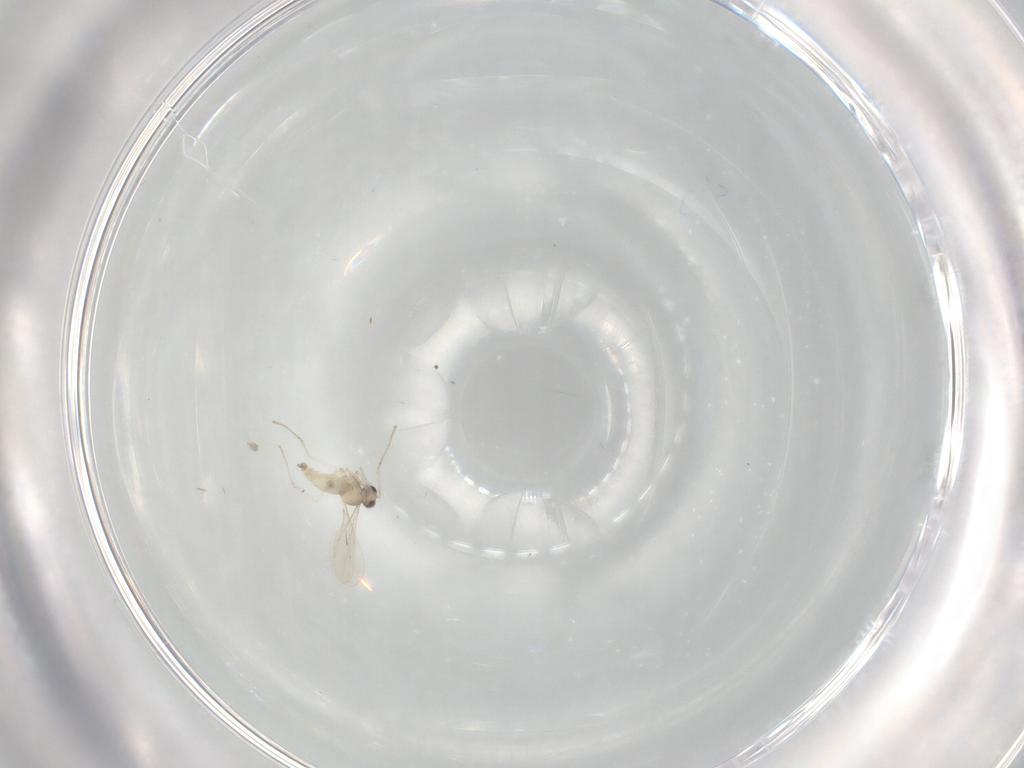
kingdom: Animalia
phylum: Arthropoda
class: Insecta
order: Diptera
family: Cecidomyiidae
